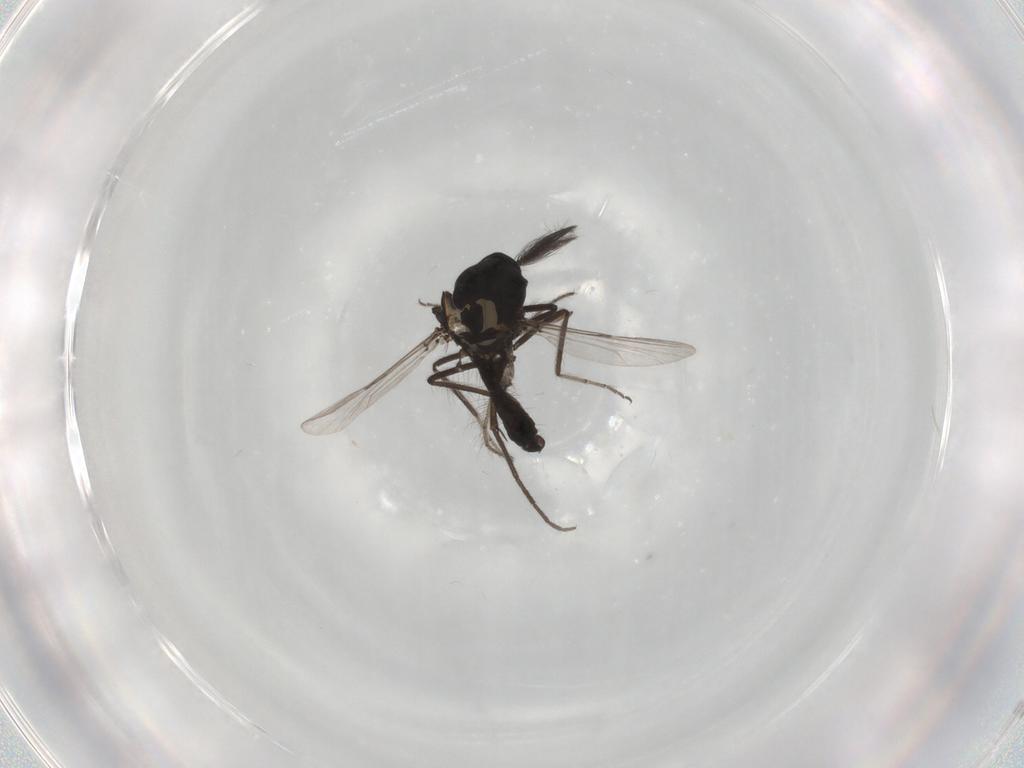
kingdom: Animalia
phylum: Arthropoda
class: Insecta
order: Diptera
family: Ceratopogonidae
